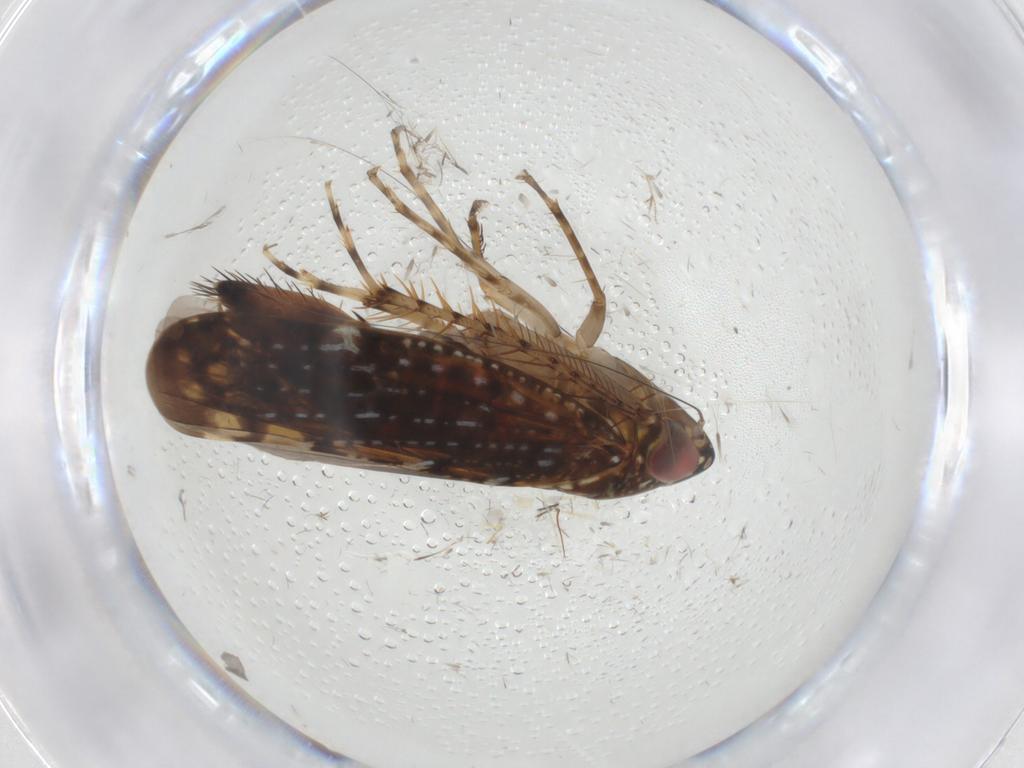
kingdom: Animalia
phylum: Arthropoda
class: Insecta
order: Hemiptera
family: Cicadellidae
